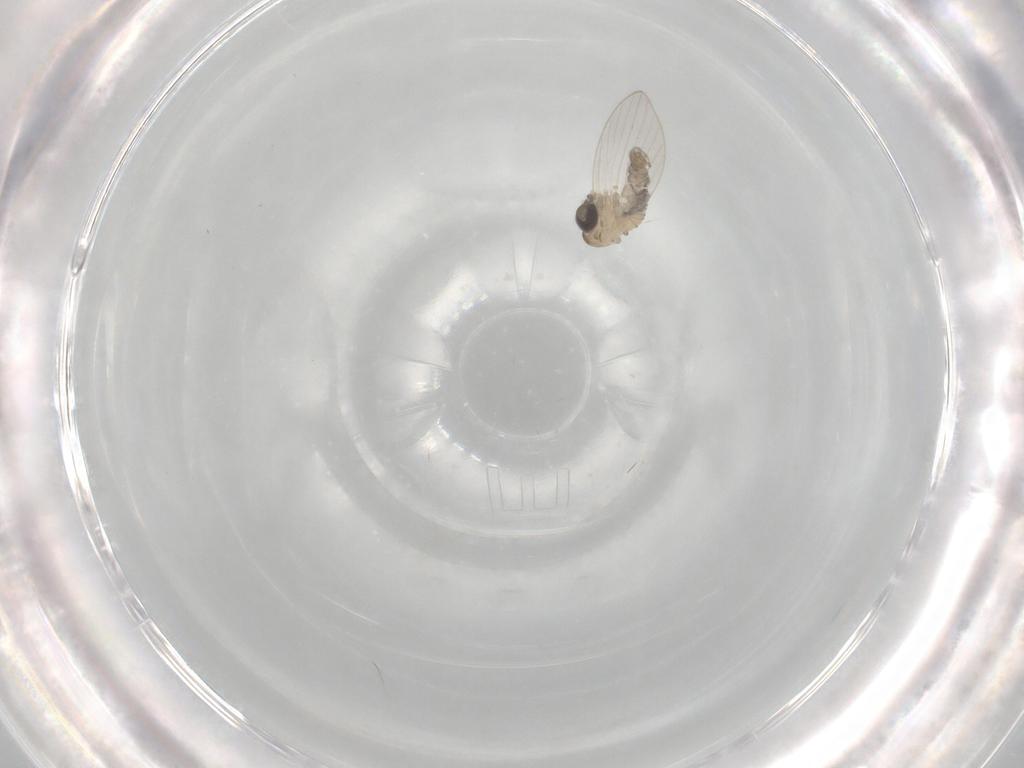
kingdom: Animalia
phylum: Arthropoda
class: Insecta
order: Diptera
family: Psychodidae
